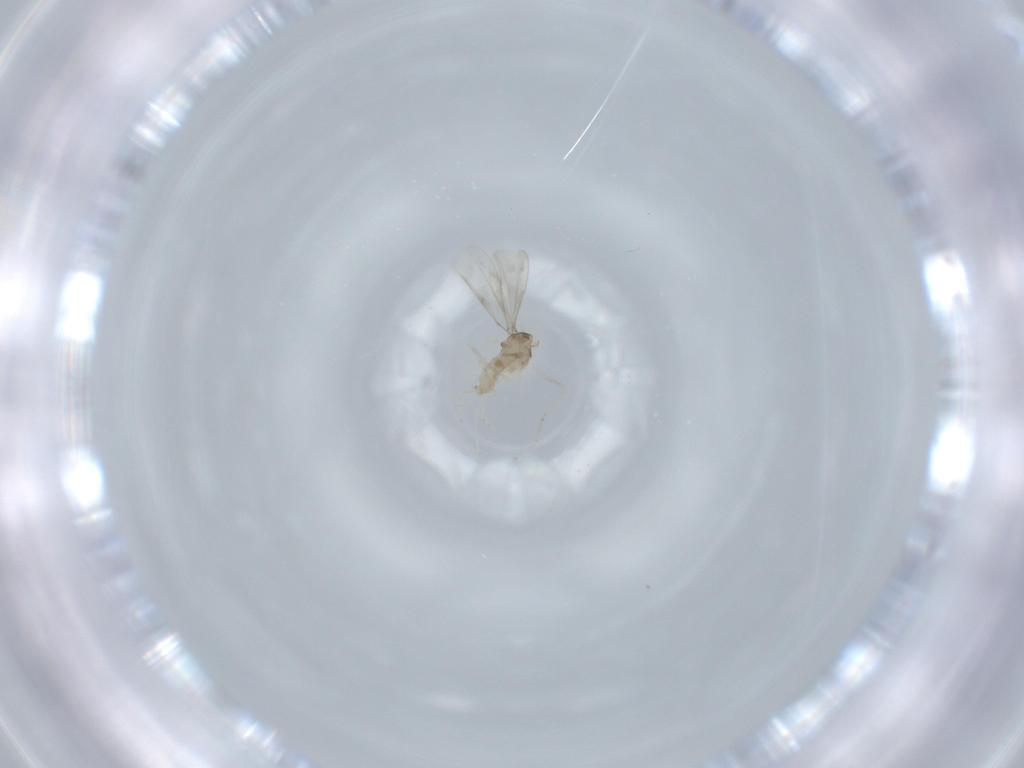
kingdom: Animalia
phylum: Arthropoda
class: Insecta
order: Diptera
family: Cecidomyiidae
